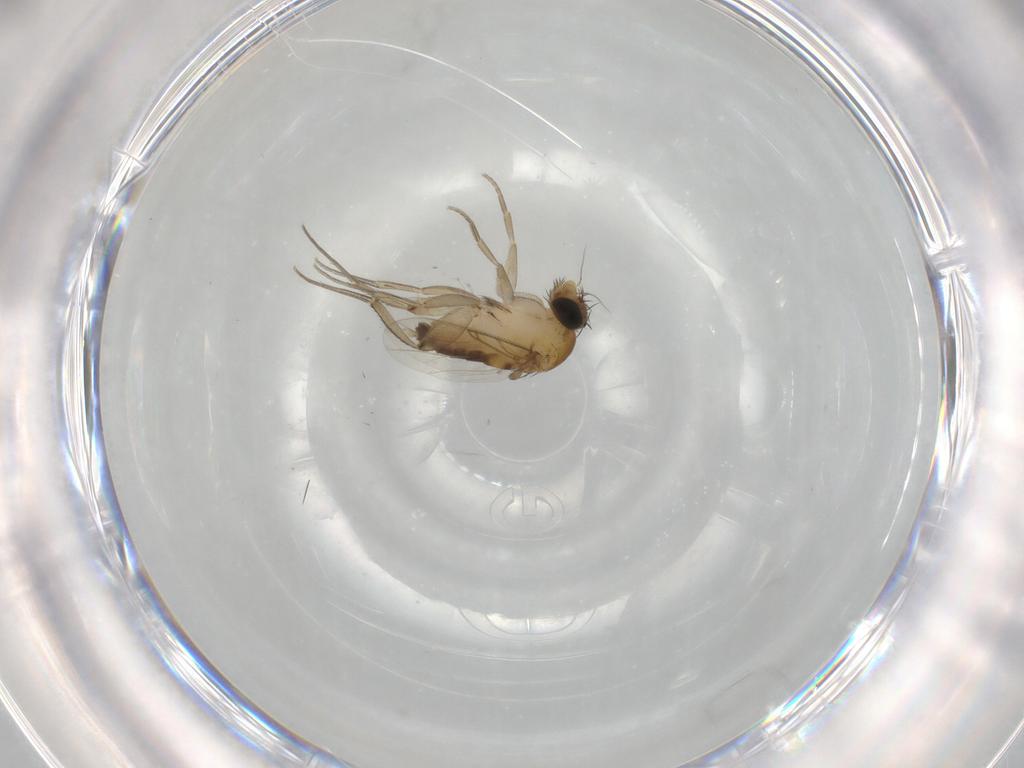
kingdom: Animalia
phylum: Arthropoda
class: Insecta
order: Diptera
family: Phoridae
